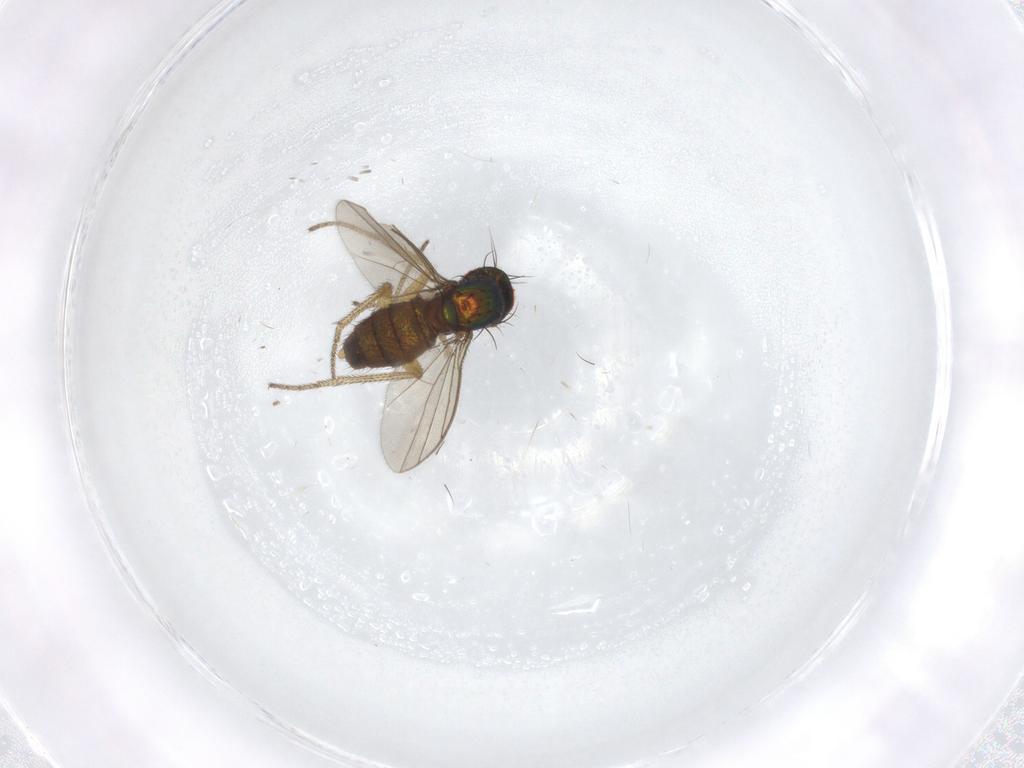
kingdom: Animalia
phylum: Arthropoda
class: Insecta
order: Diptera
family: Dolichopodidae
